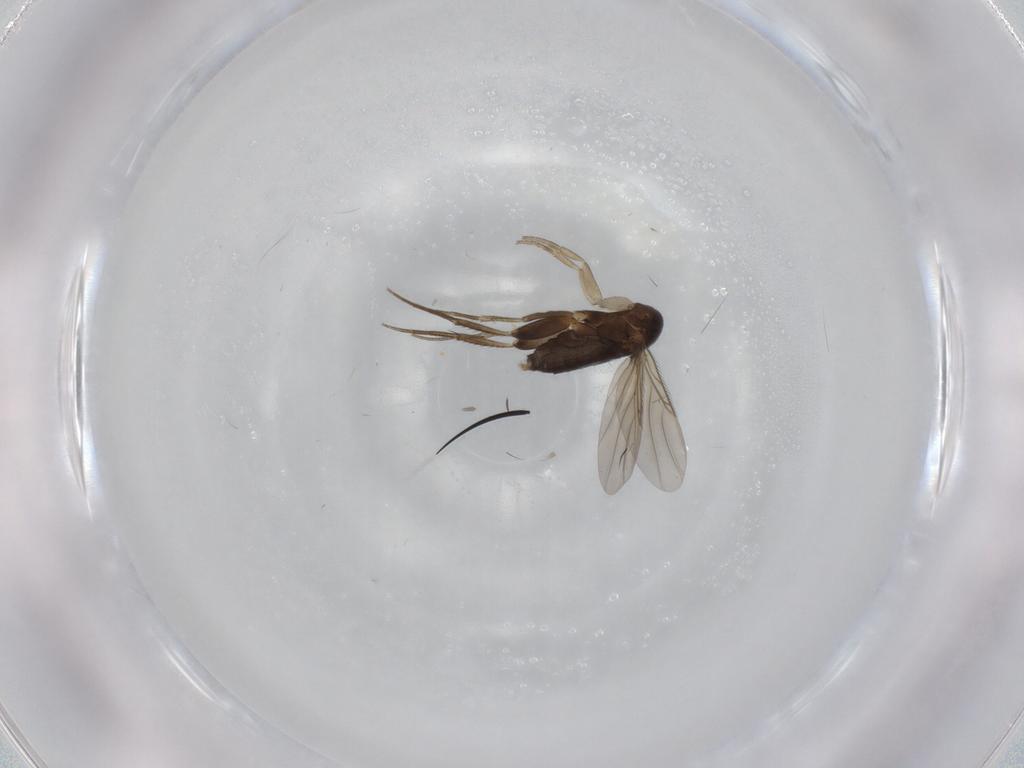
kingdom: Animalia
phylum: Arthropoda
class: Insecta
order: Diptera
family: Phoridae
